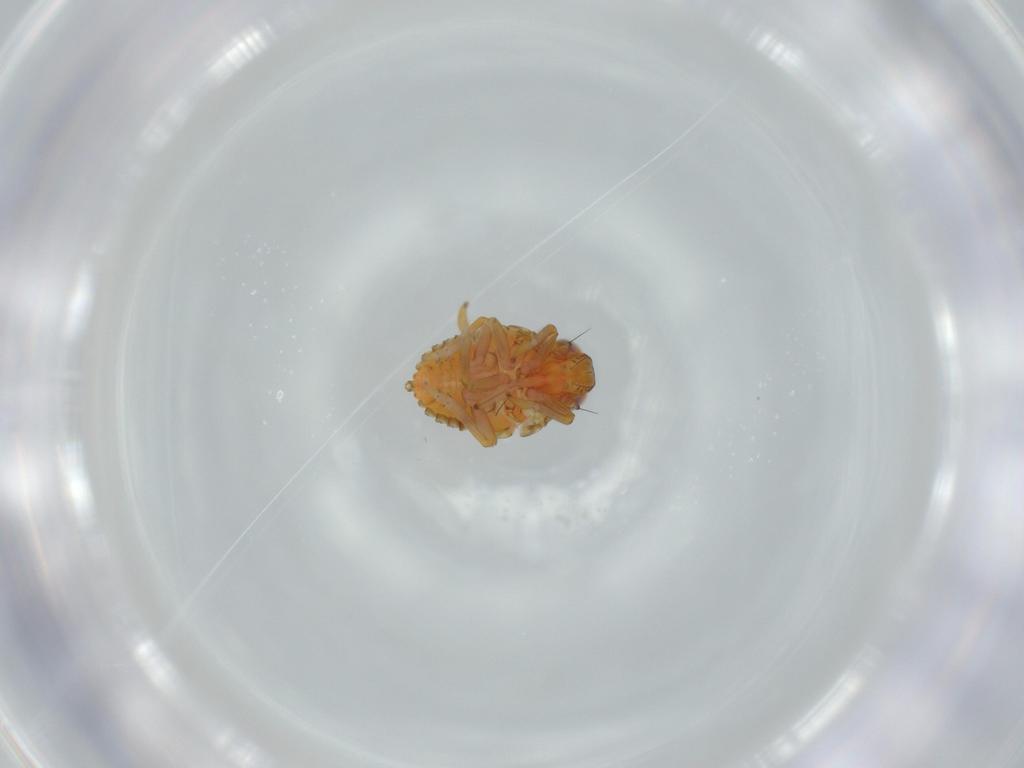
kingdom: Animalia
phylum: Arthropoda
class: Insecta
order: Hemiptera
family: Issidae
